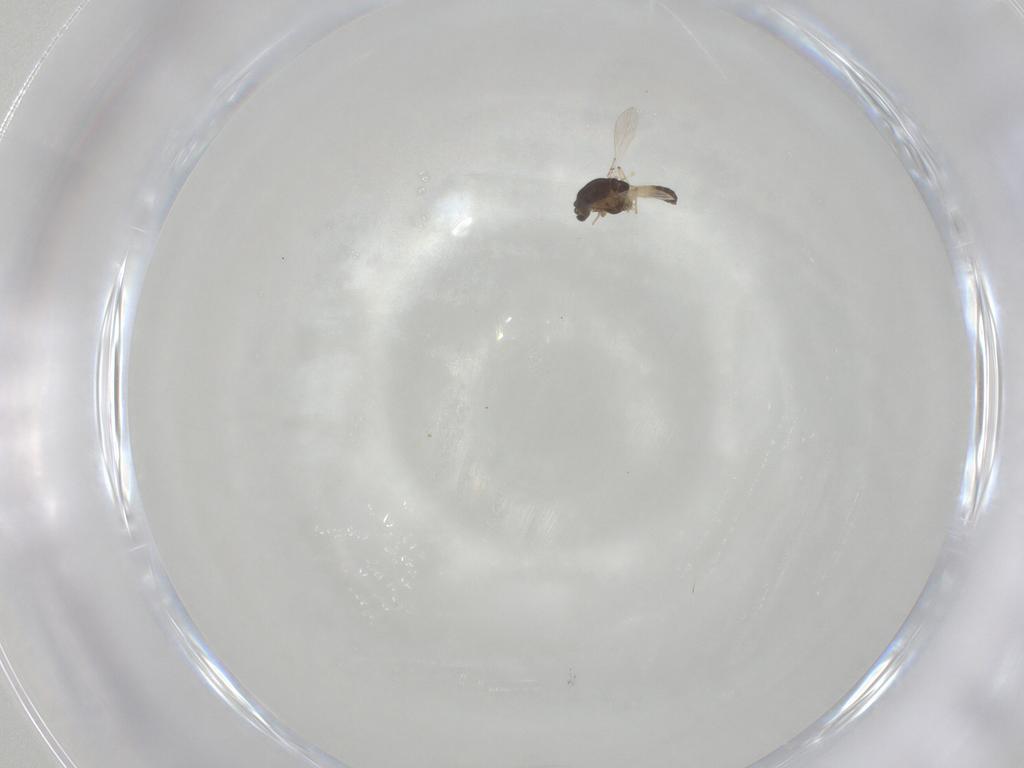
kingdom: Animalia
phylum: Arthropoda
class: Insecta
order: Diptera
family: Chironomidae
